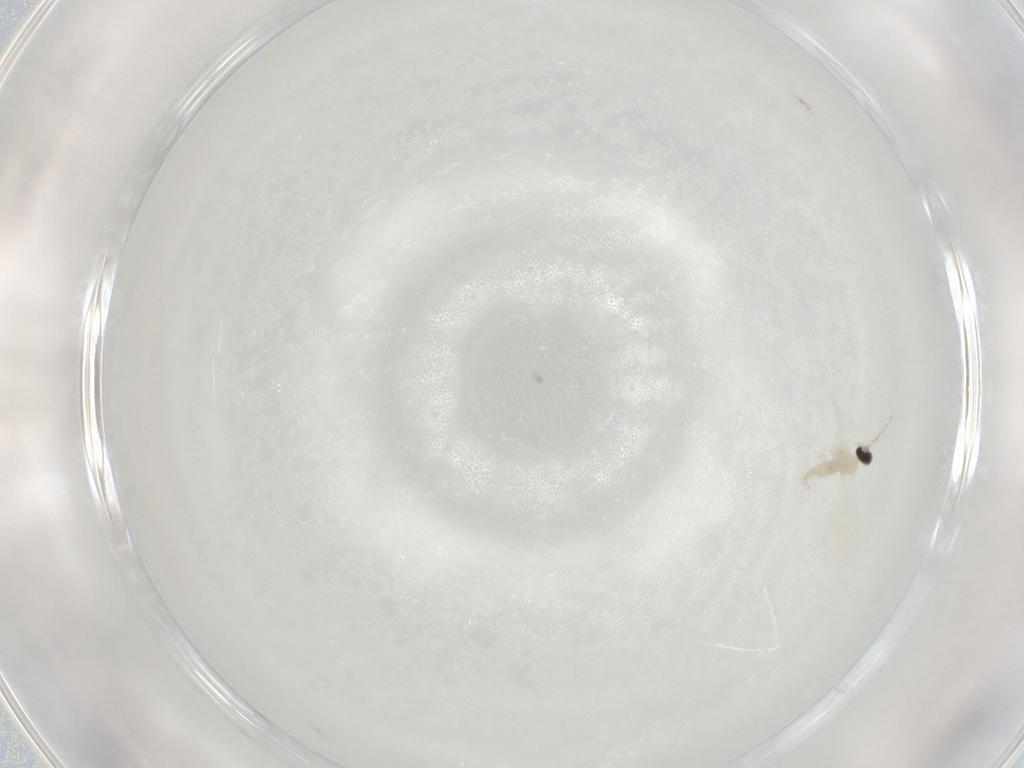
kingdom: Animalia
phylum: Arthropoda
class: Insecta
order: Diptera
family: Cecidomyiidae
